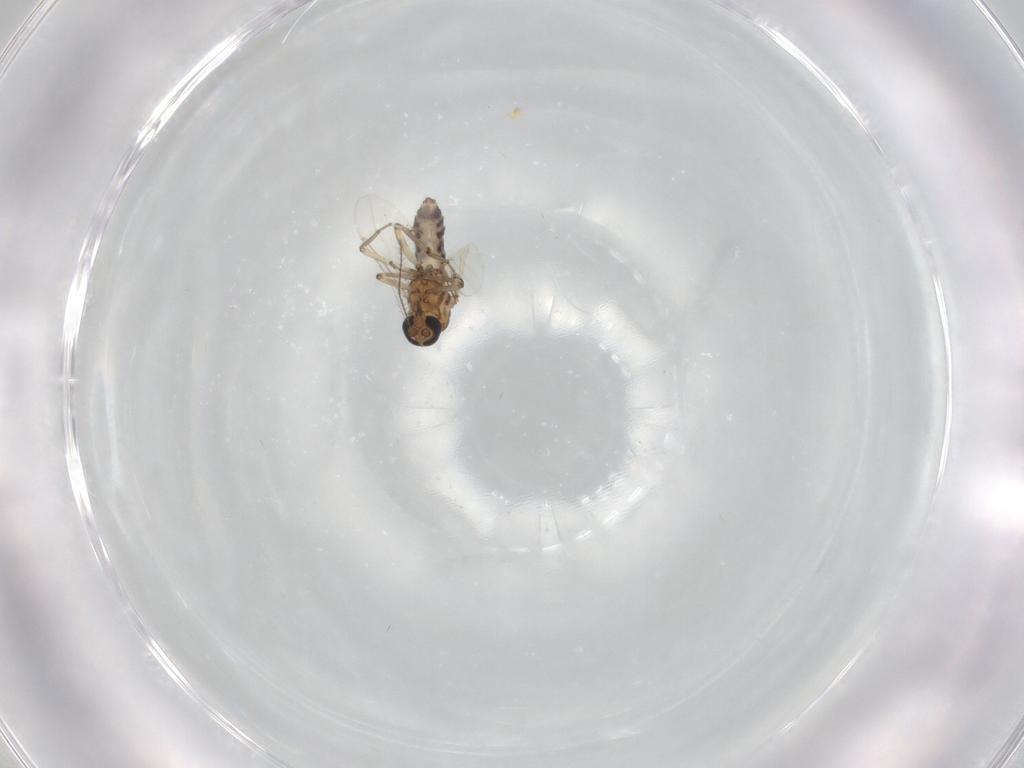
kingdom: Animalia
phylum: Arthropoda
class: Insecta
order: Diptera
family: Ceratopogonidae
